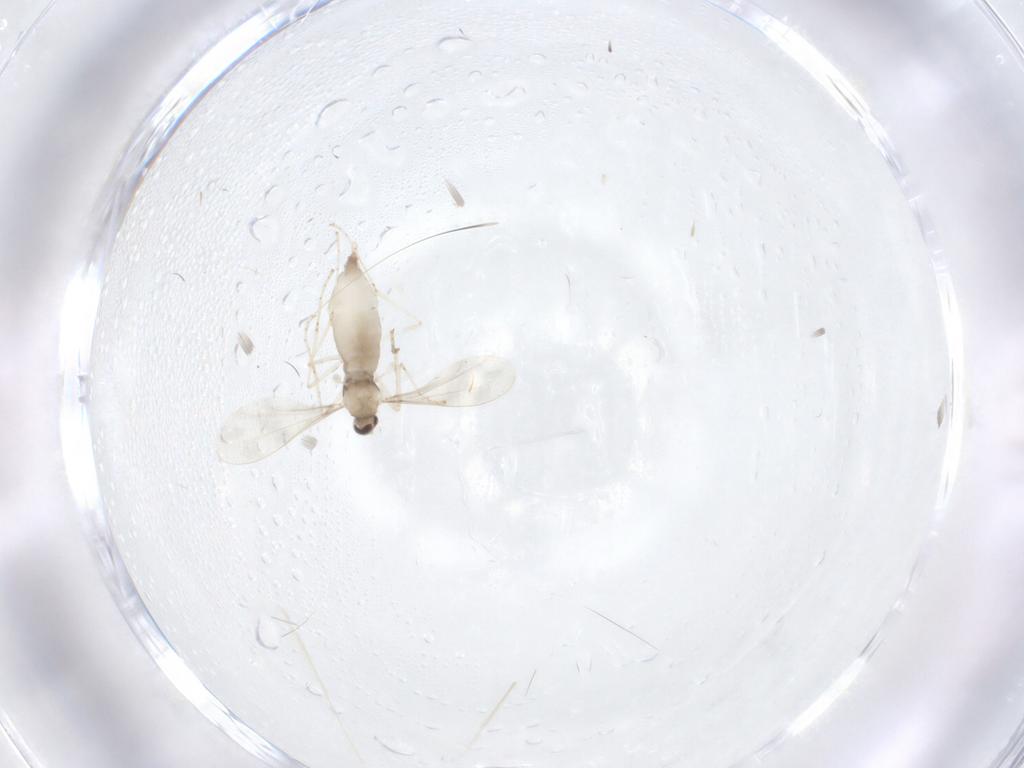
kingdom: Animalia
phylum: Arthropoda
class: Insecta
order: Diptera
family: Cecidomyiidae
